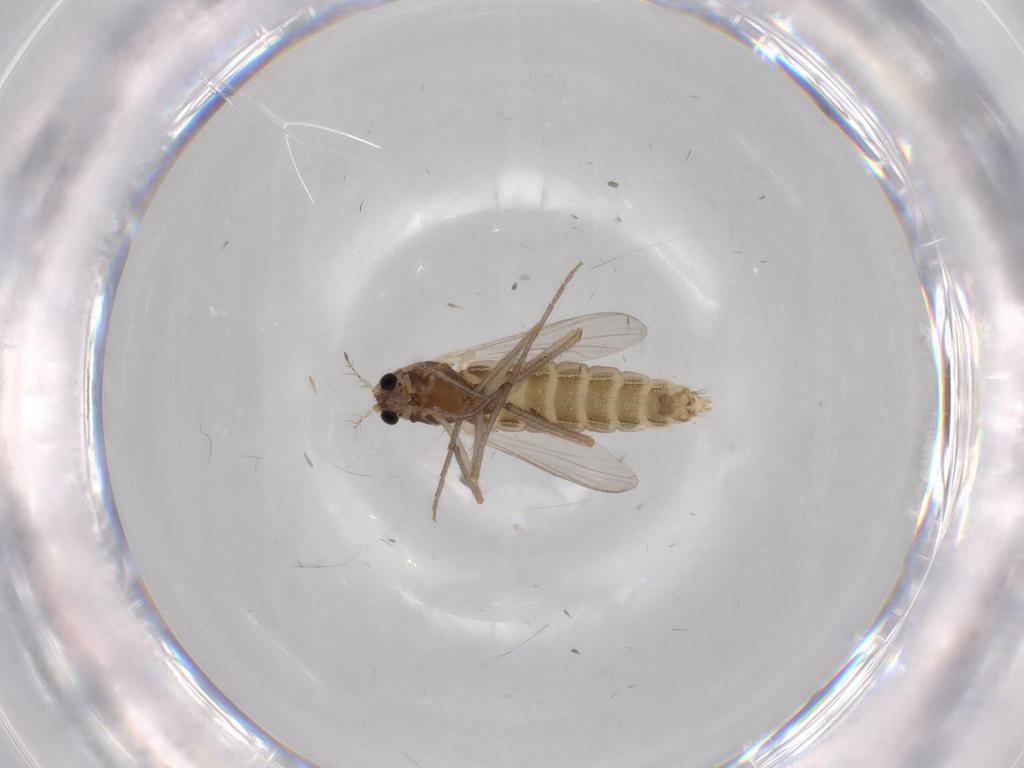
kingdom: Animalia
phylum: Arthropoda
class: Insecta
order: Diptera
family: Chironomidae
